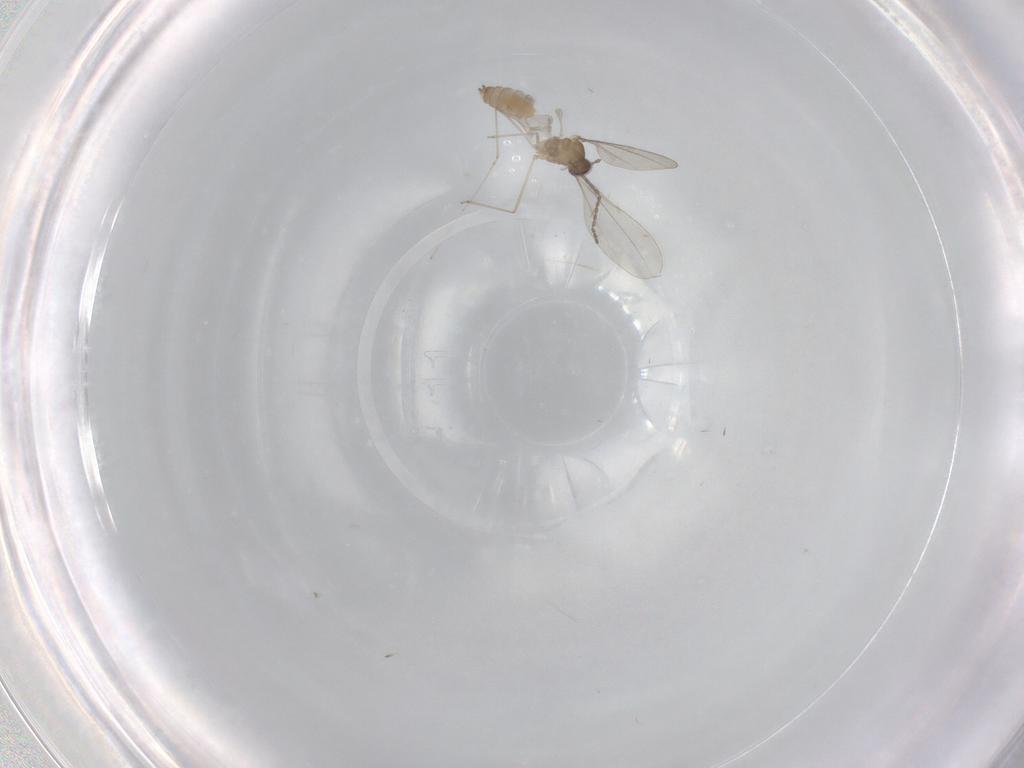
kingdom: Animalia
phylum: Arthropoda
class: Insecta
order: Diptera
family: Cecidomyiidae
